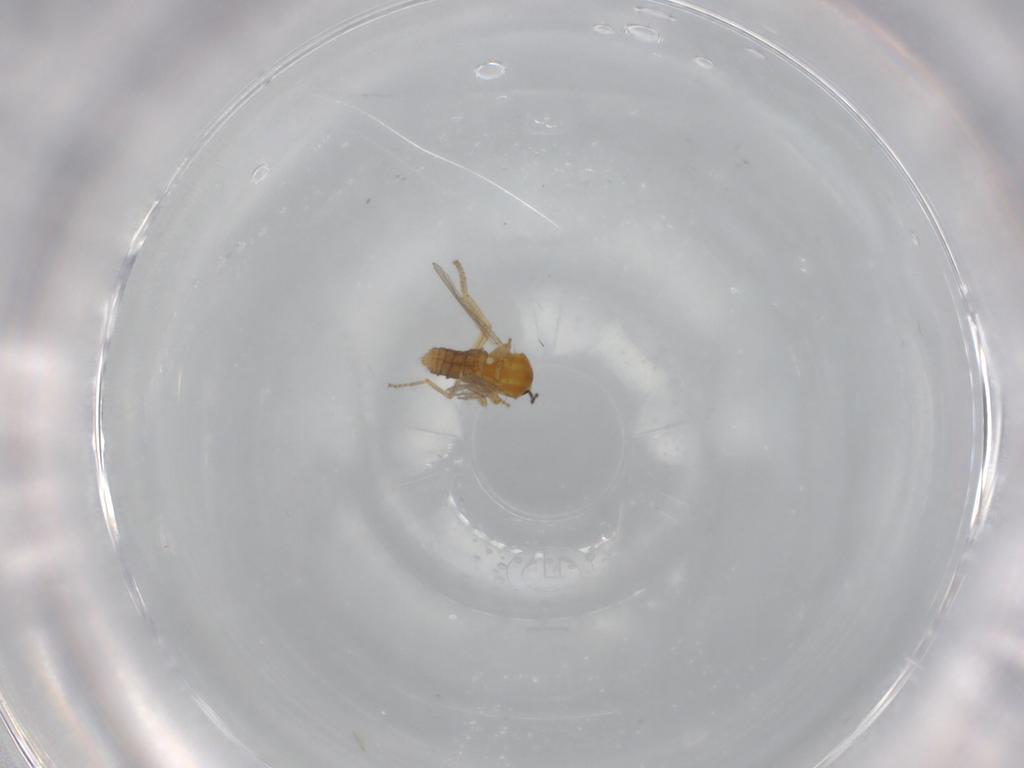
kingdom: Animalia
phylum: Arthropoda
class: Insecta
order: Diptera
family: Ceratopogonidae
